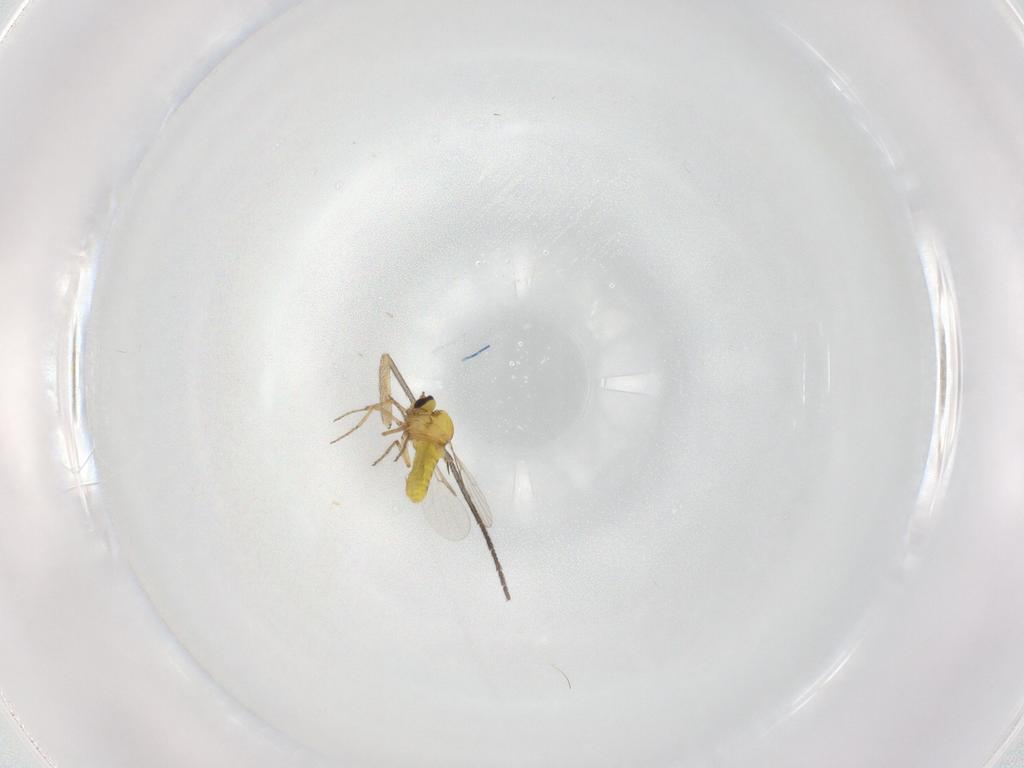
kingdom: Animalia
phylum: Arthropoda
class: Insecta
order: Diptera
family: Ceratopogonidae
